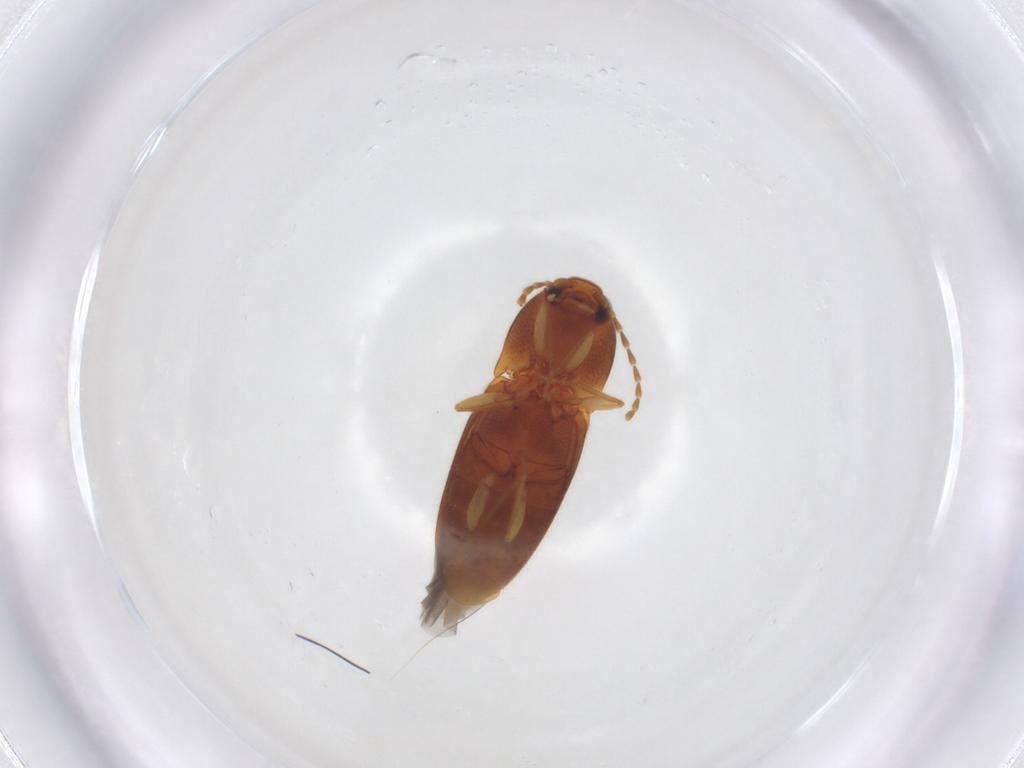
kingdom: Animalia
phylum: Arthropoda
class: Insecta
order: Coleoptera
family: Elateridae
